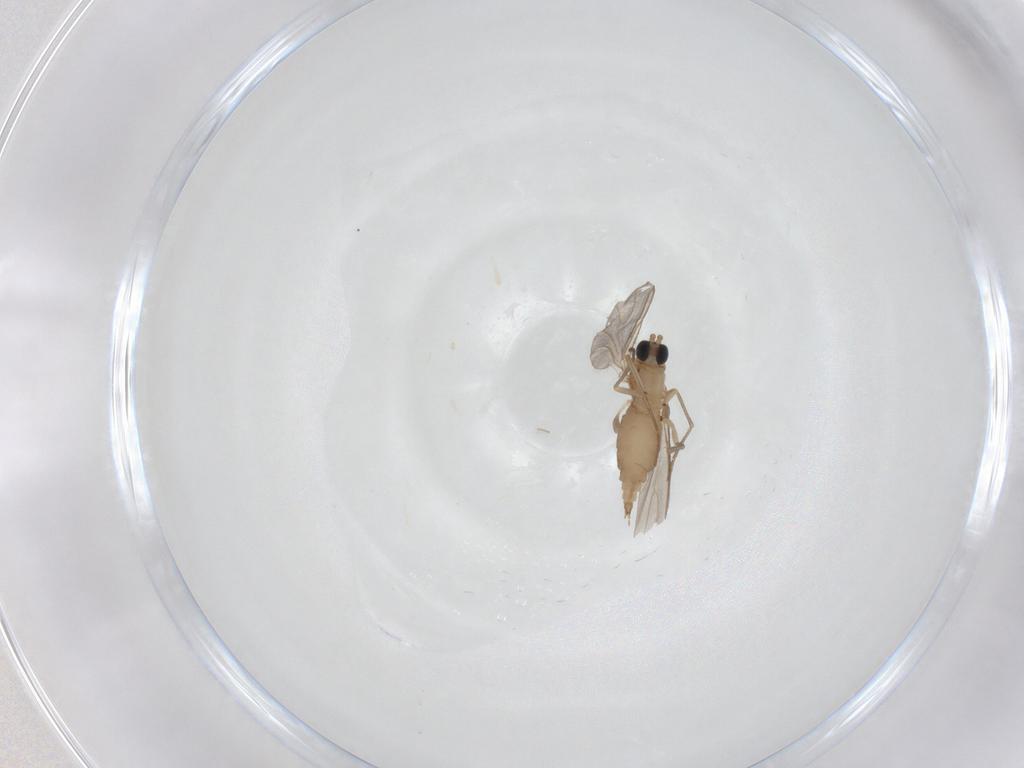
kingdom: Animalia
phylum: Arthropoda
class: Insecta
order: Diptera
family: Sciaridae
